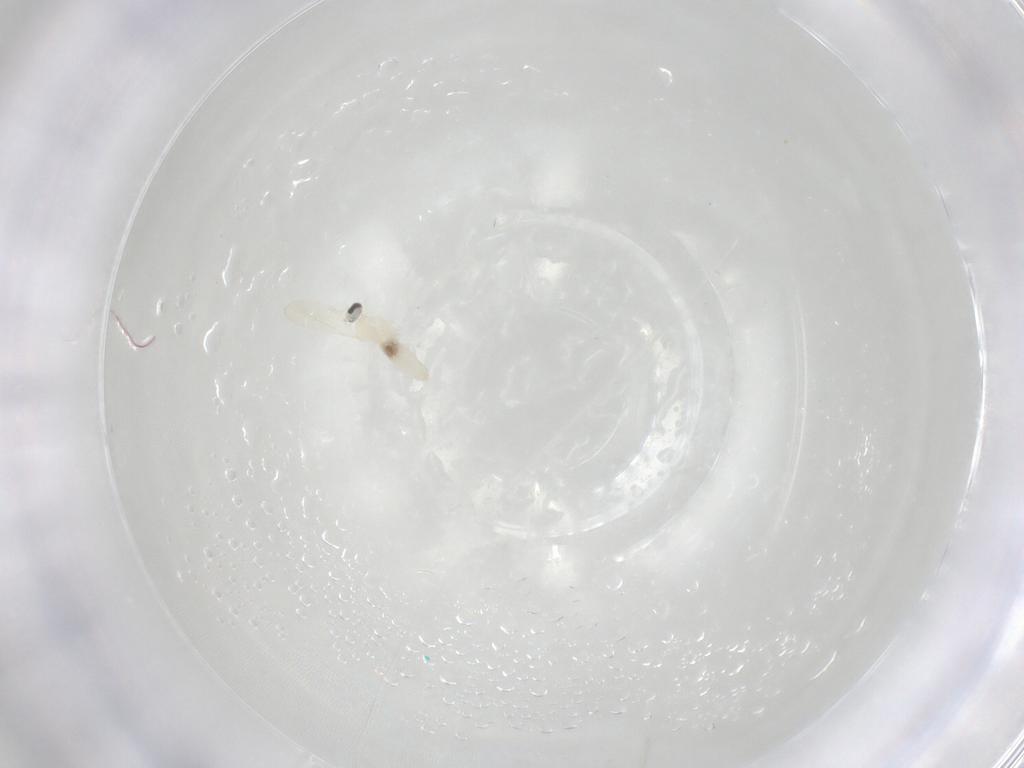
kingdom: Animalia
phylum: Arthropoda
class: Insecta
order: Diptera
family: Cecidomyiidae
